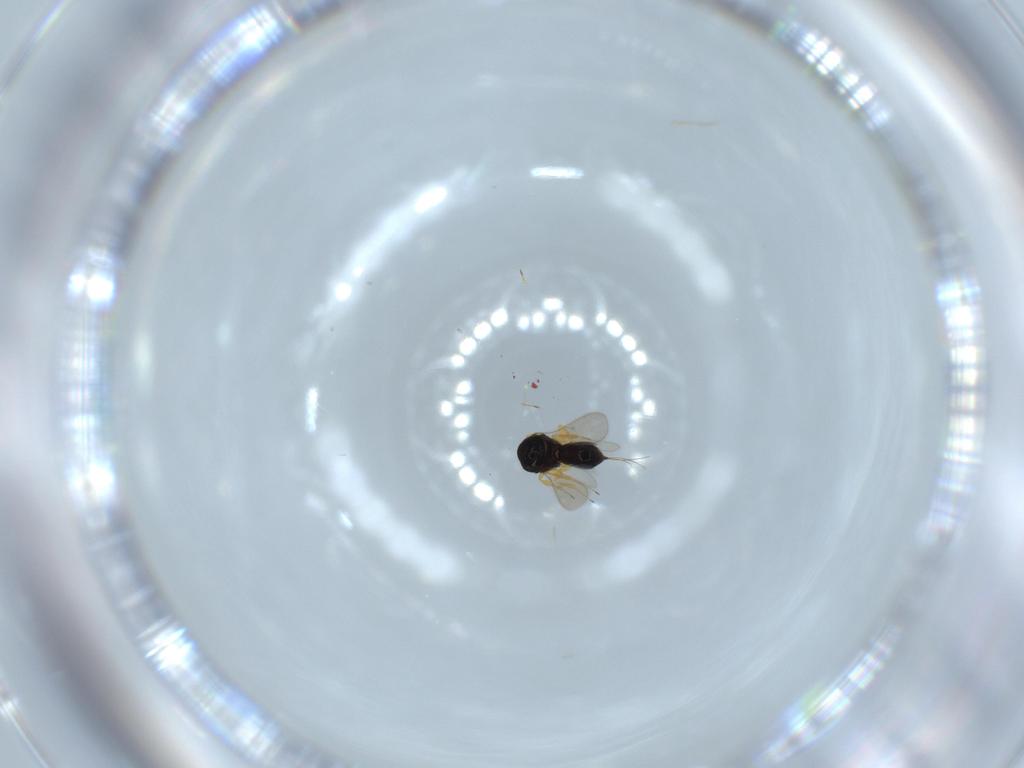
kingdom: Animalia
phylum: Arthropoda
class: Insecta
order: Hymenoptera
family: Scelionidae
